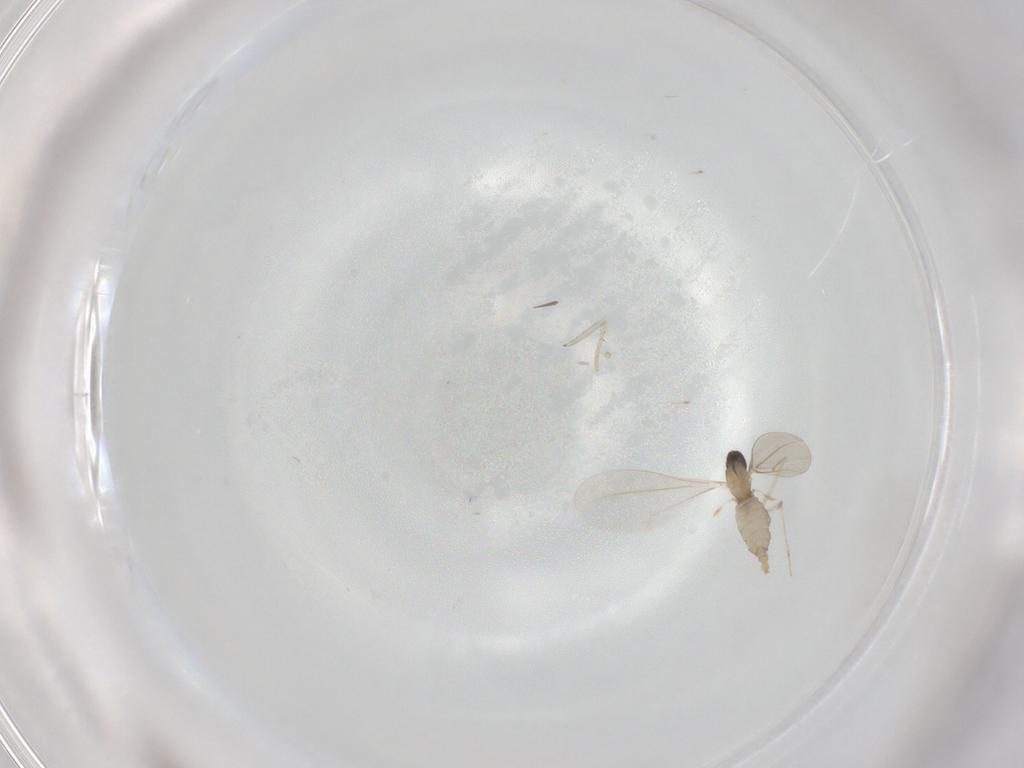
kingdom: Animalia
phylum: Arthropoda
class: Insecta
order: Diptera
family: Cecidomyiidae
